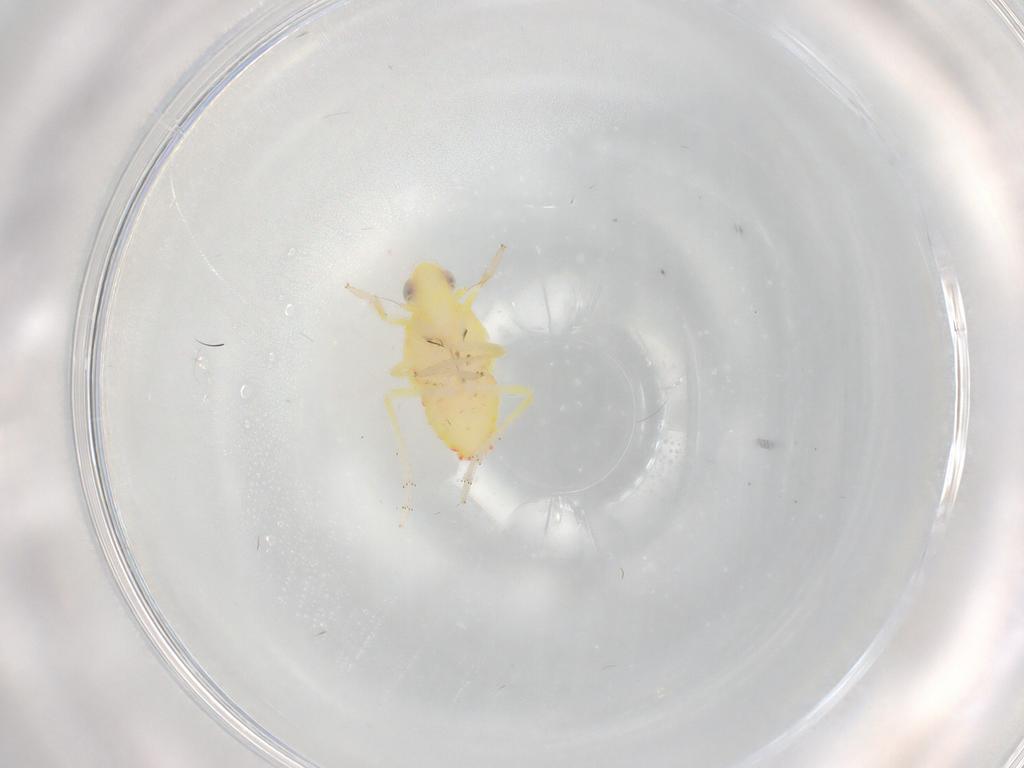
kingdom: Animalia
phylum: Arthropoda
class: Insecta
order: Hemiptera
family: Tropiduchidae
